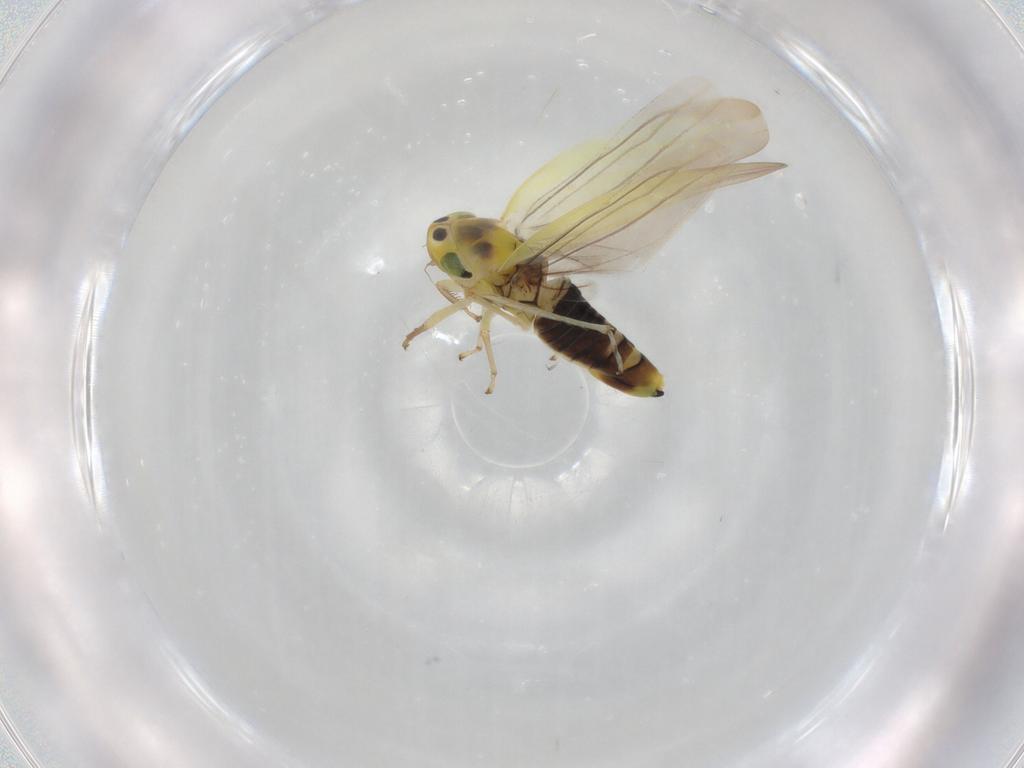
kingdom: Animalia
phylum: Arthropoda
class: Insecta
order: Hemiptera
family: Cicadellidae
